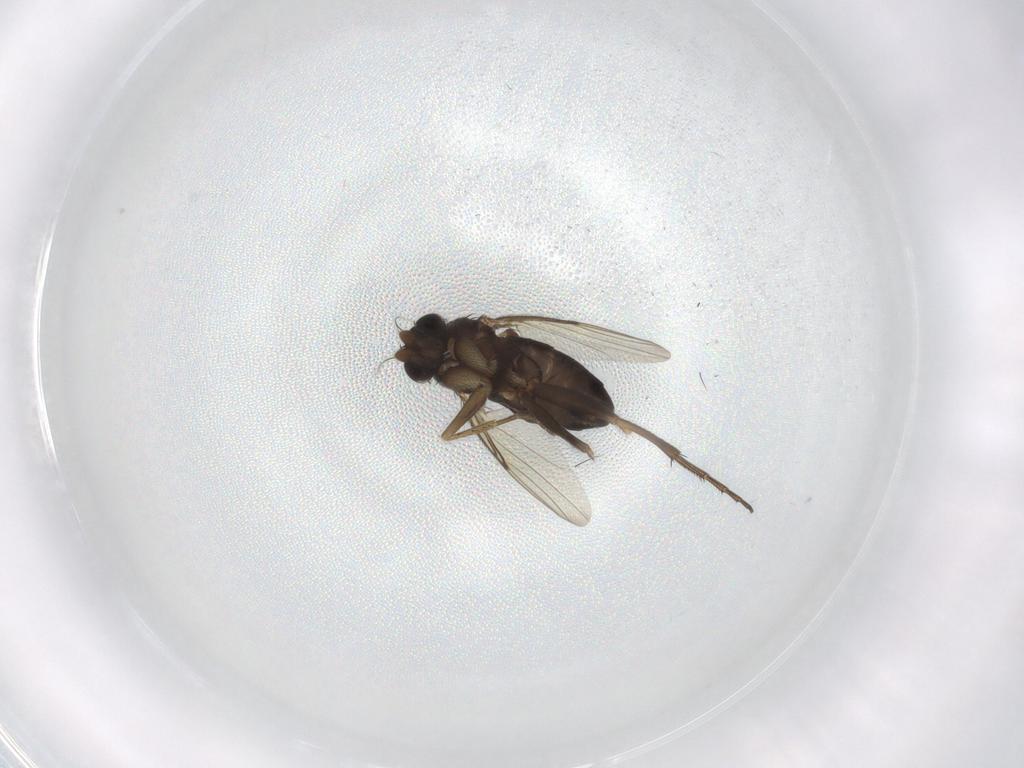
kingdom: Animalia
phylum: Arthropoda
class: Insecta
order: Diptera
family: Phoridae
